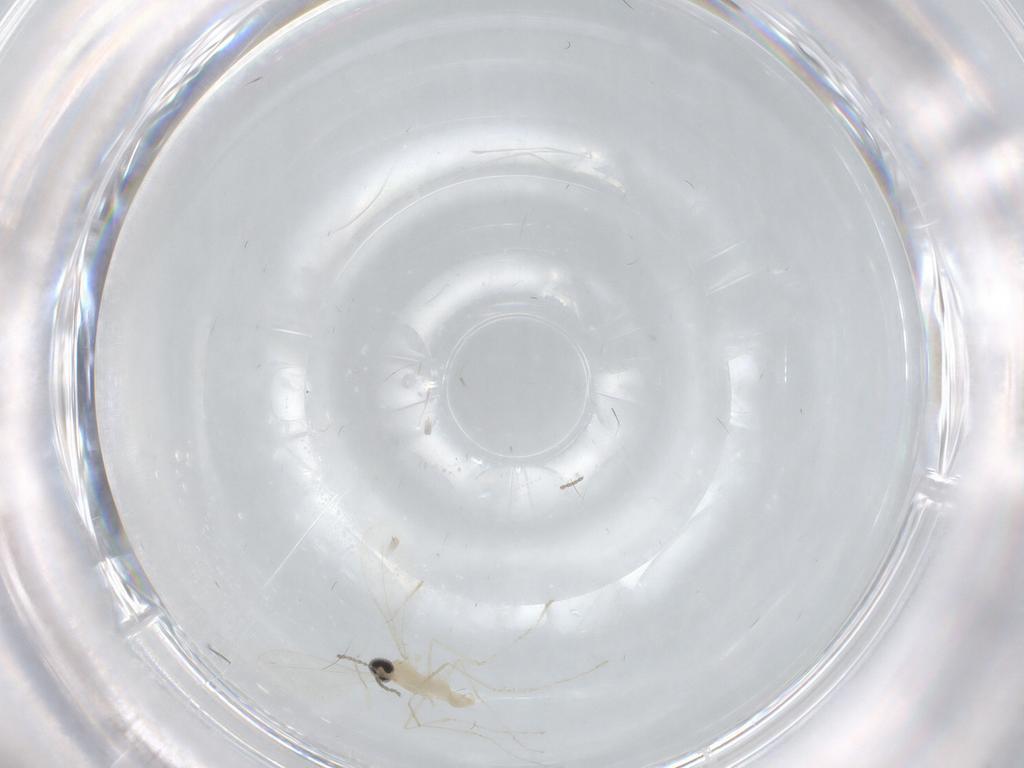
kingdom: Animalia
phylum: Arthropoda
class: Insecta
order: Diptera
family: Cecidomyiidae
